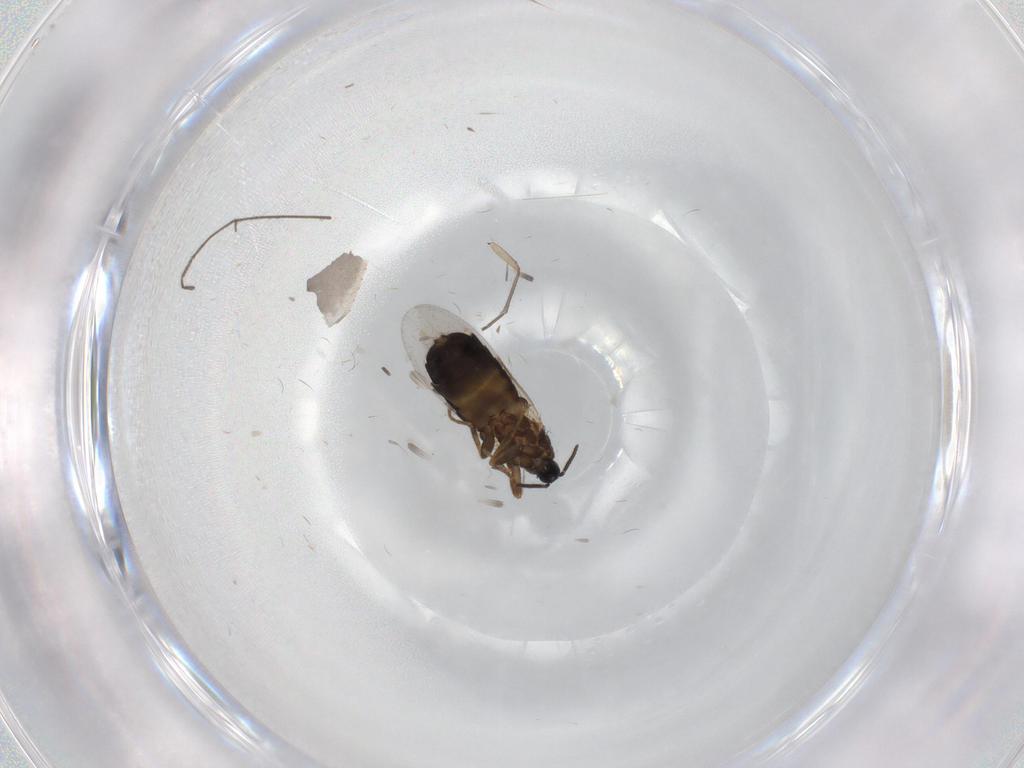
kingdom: Animalia
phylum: Arthropoda
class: Insecta
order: Diptera
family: Scatopsidae
